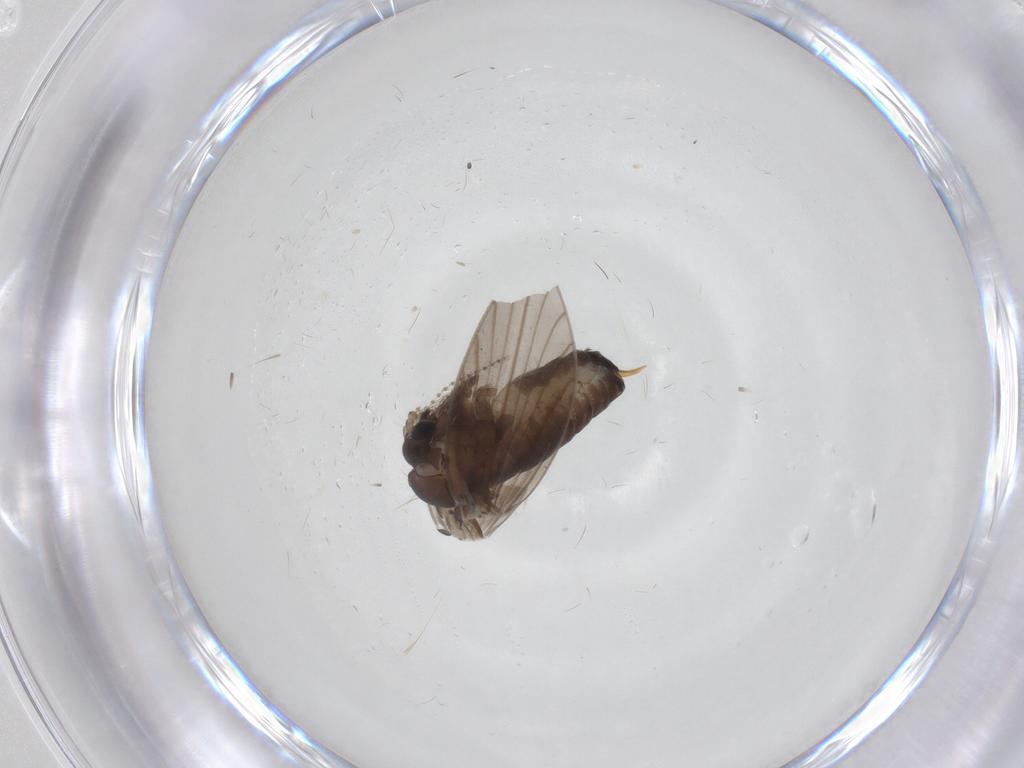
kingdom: Animalia
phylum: Arthropoda
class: Insecta
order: Diptera
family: Psychodidae
